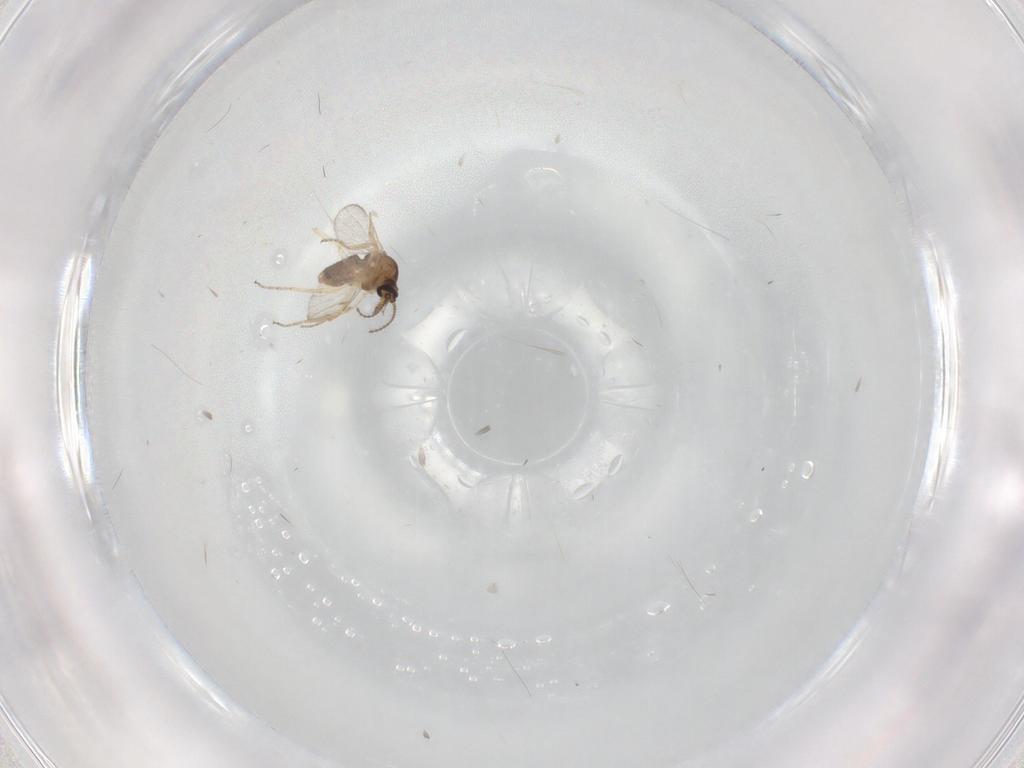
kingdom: Animalia
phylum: Arthropoda
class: Insecta
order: Diptera
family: Ceratopogonidae
